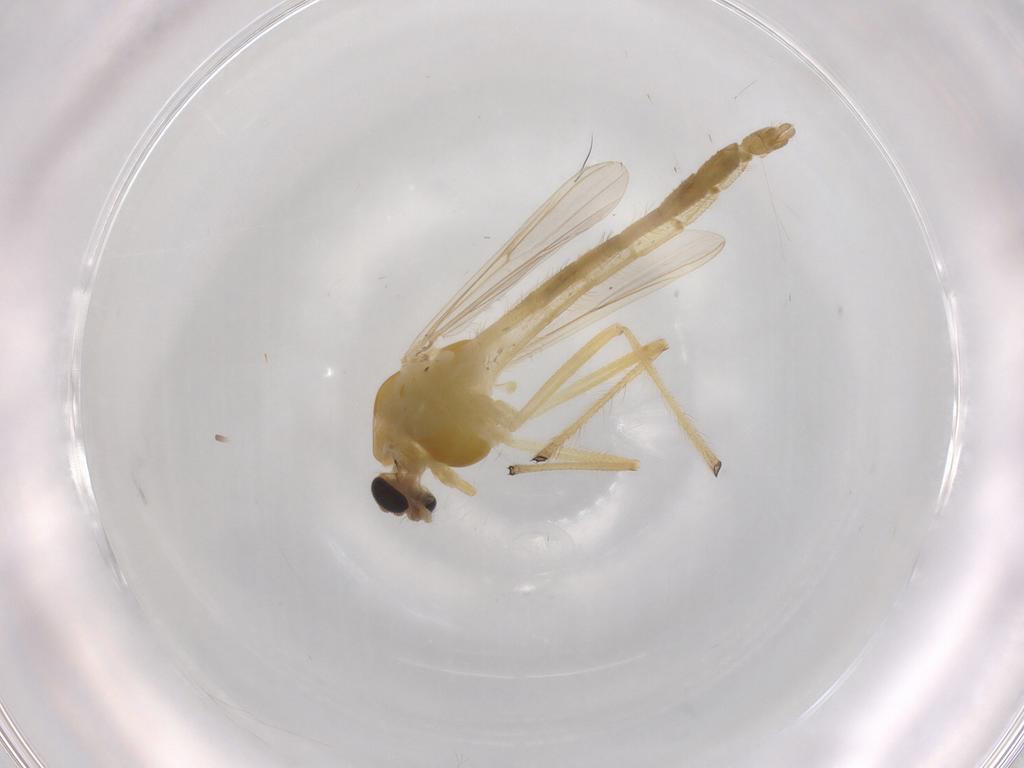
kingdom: Animalia
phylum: Arthropoda
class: Insecta
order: Diptera
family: Chironomidae
